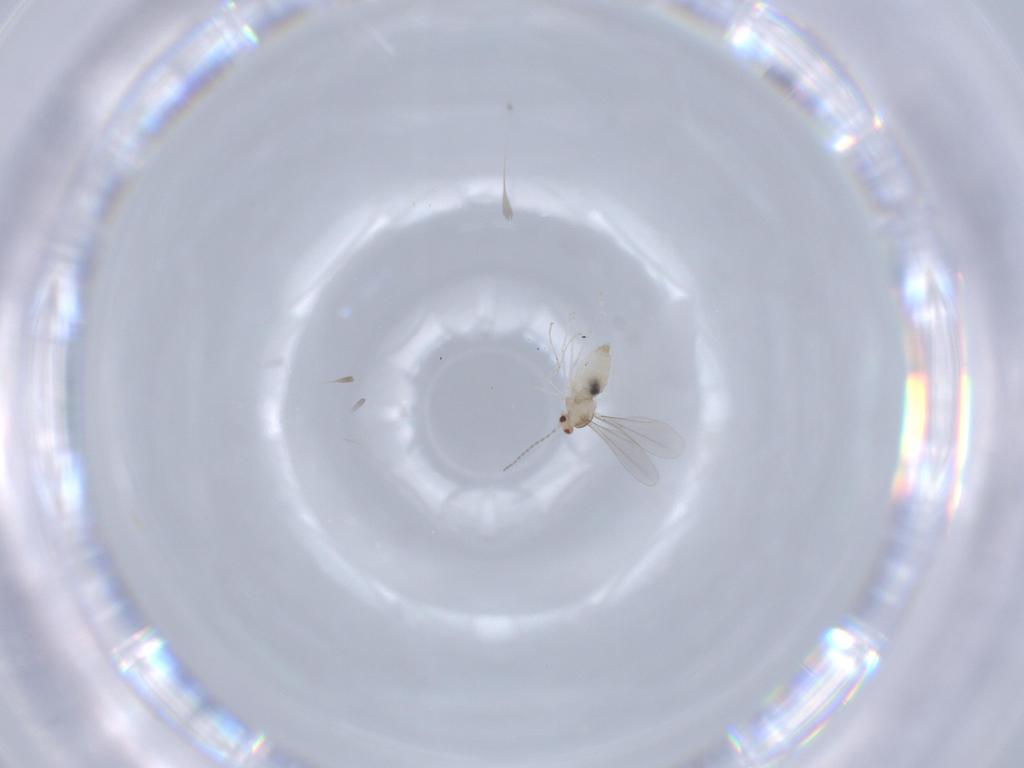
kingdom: Animalia
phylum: Arthropoda
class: Insecta
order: Diptera
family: Cecidomyiidae
